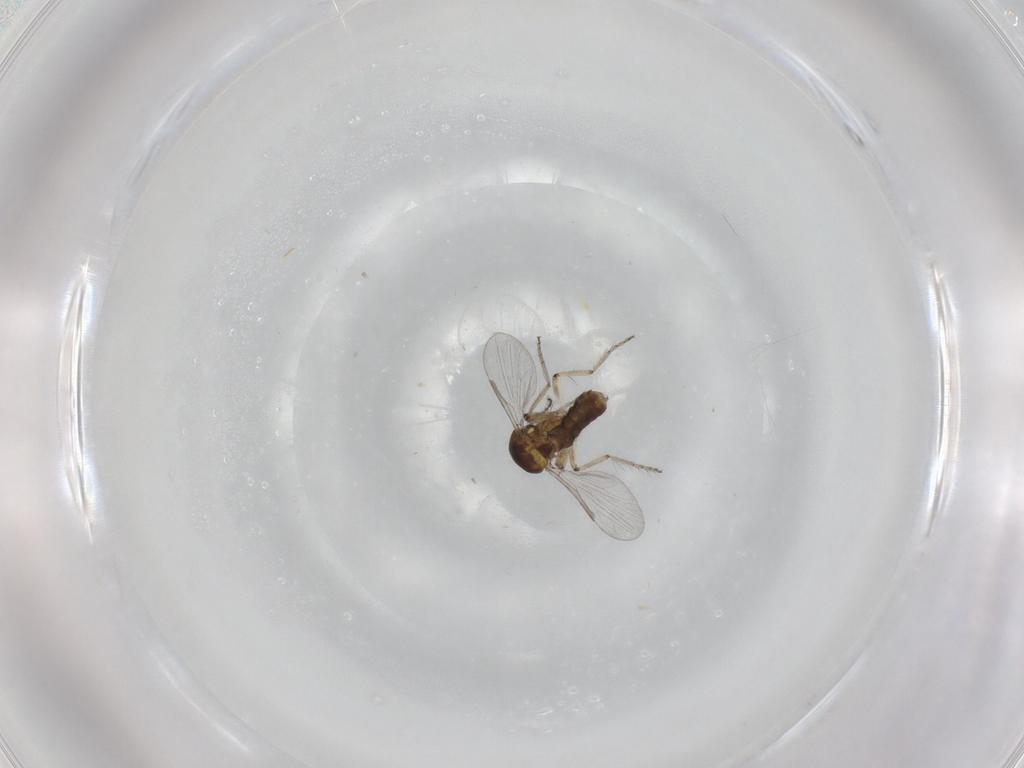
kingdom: Animalia
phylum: Arthropoda
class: Insecta
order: Diptera
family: Ceratopogonidae
